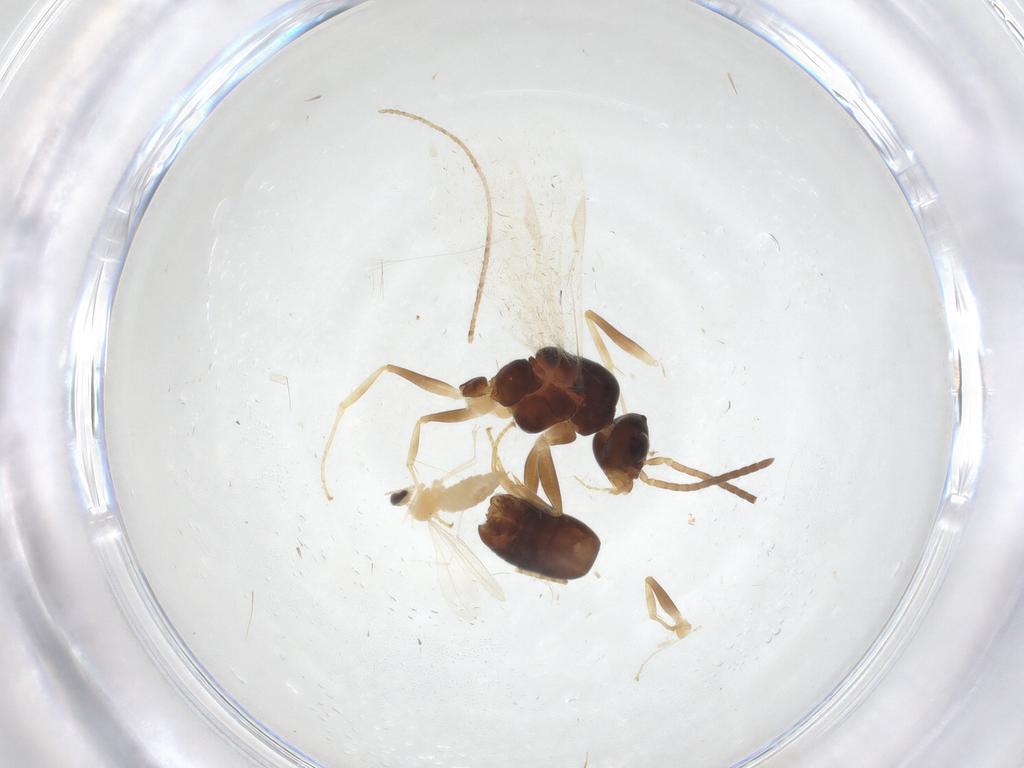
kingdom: Animalia
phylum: Arthropoda
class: Insecta
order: Hymenoptera
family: Formicidae
